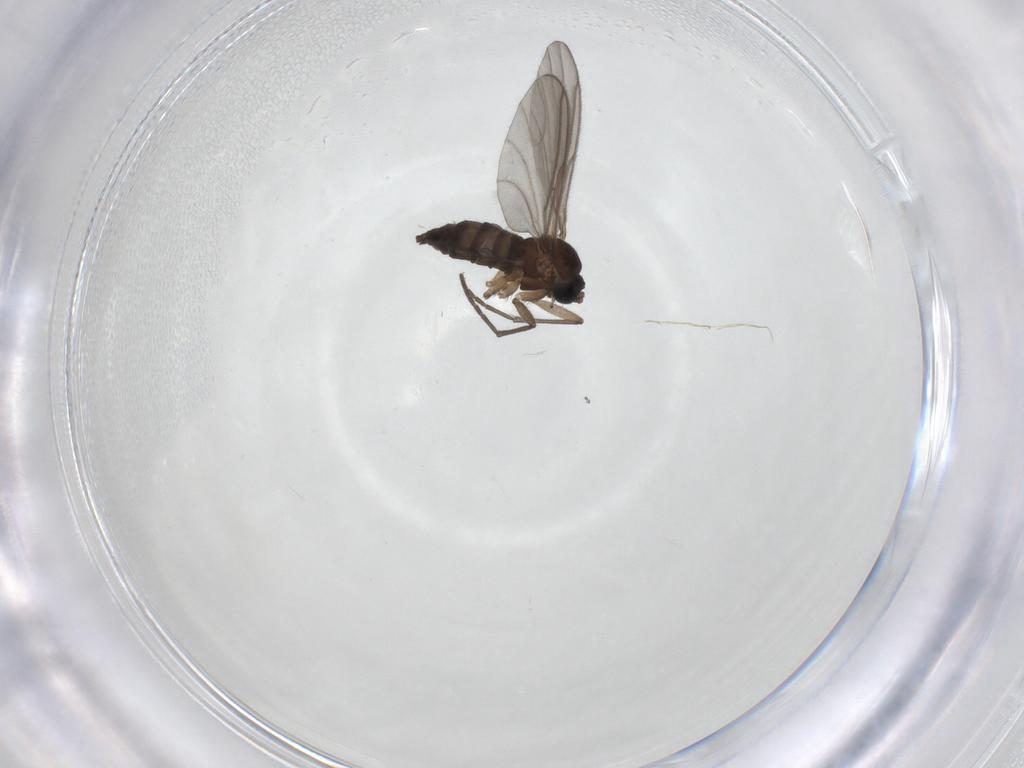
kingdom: Animalia
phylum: Arthropoda
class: Insecta
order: Diptera
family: Sciaridae
